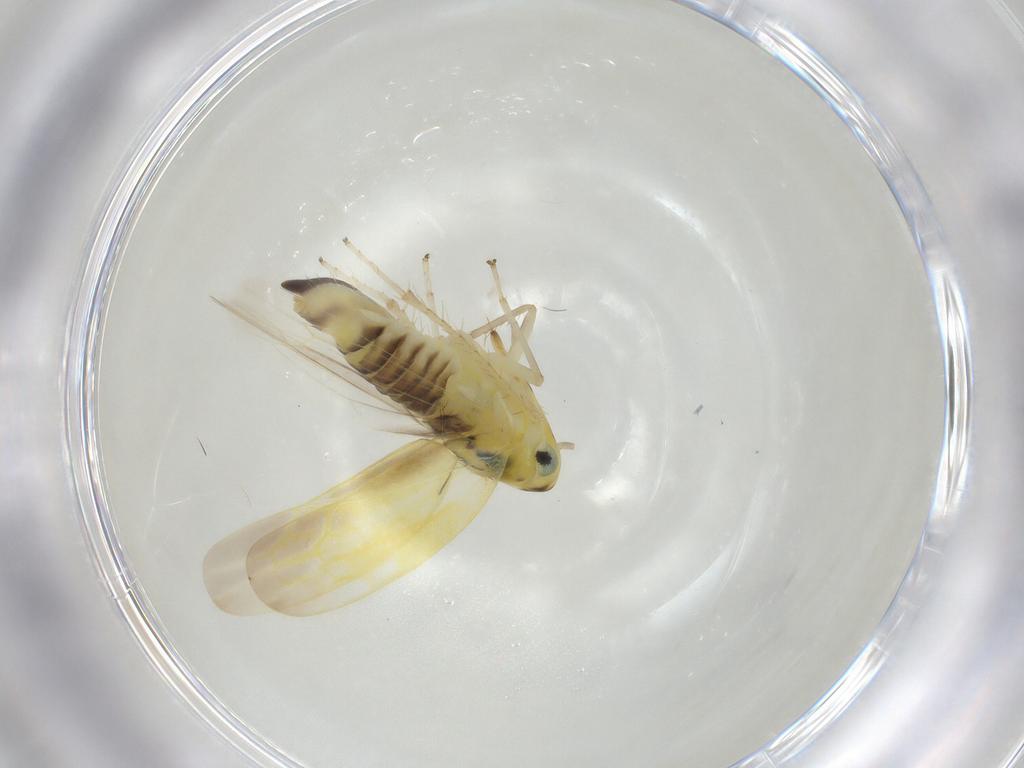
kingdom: Animalia
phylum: Arthropoda
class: Insecta
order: Hemiptera
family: Cicadellidae
